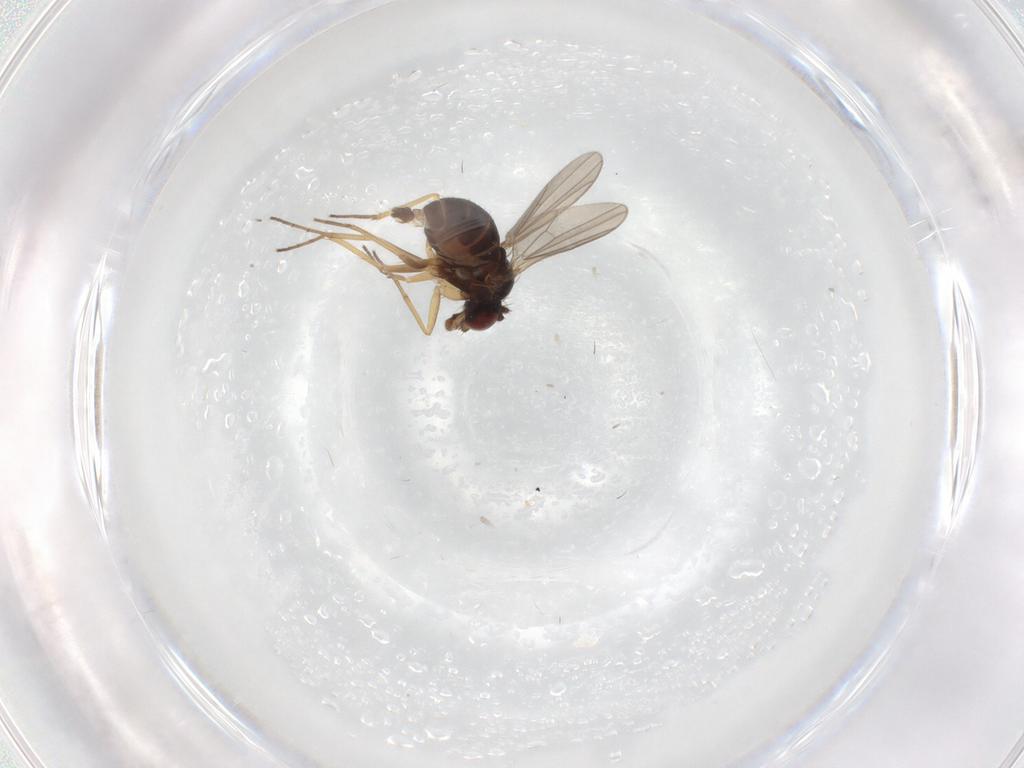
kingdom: Animalia
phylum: Arthropoda
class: Insecta
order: Diptera
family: Dolichopodidae
